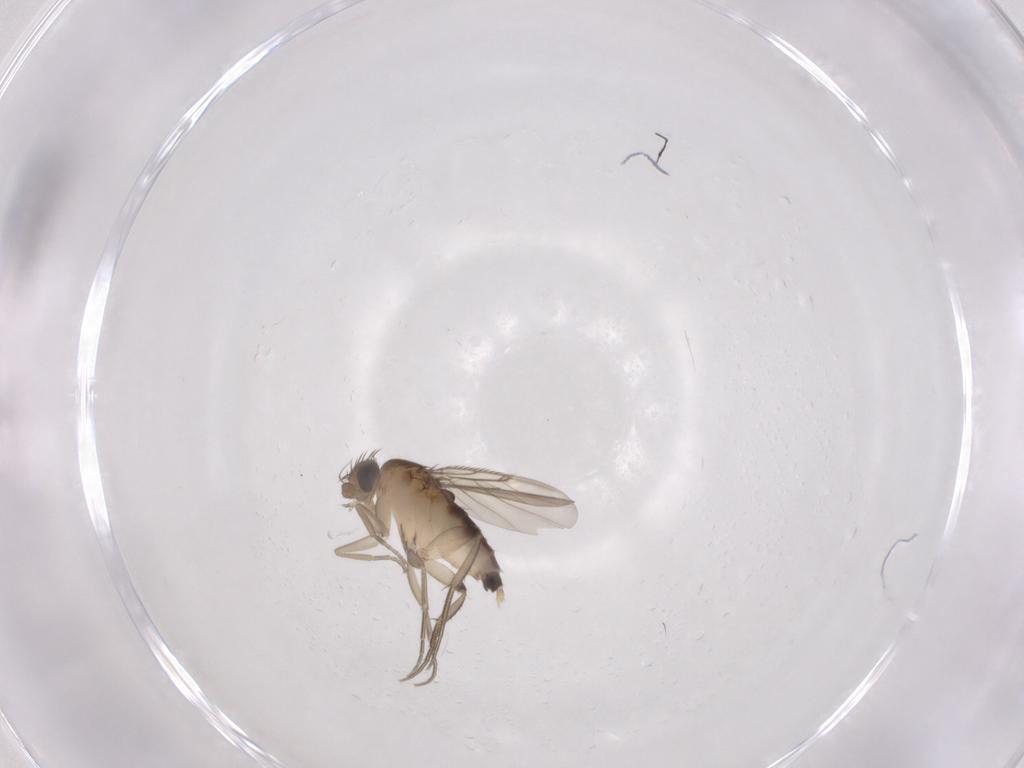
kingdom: Animalia
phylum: Arthropoda
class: Insecta
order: Diptera
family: Phoridae
